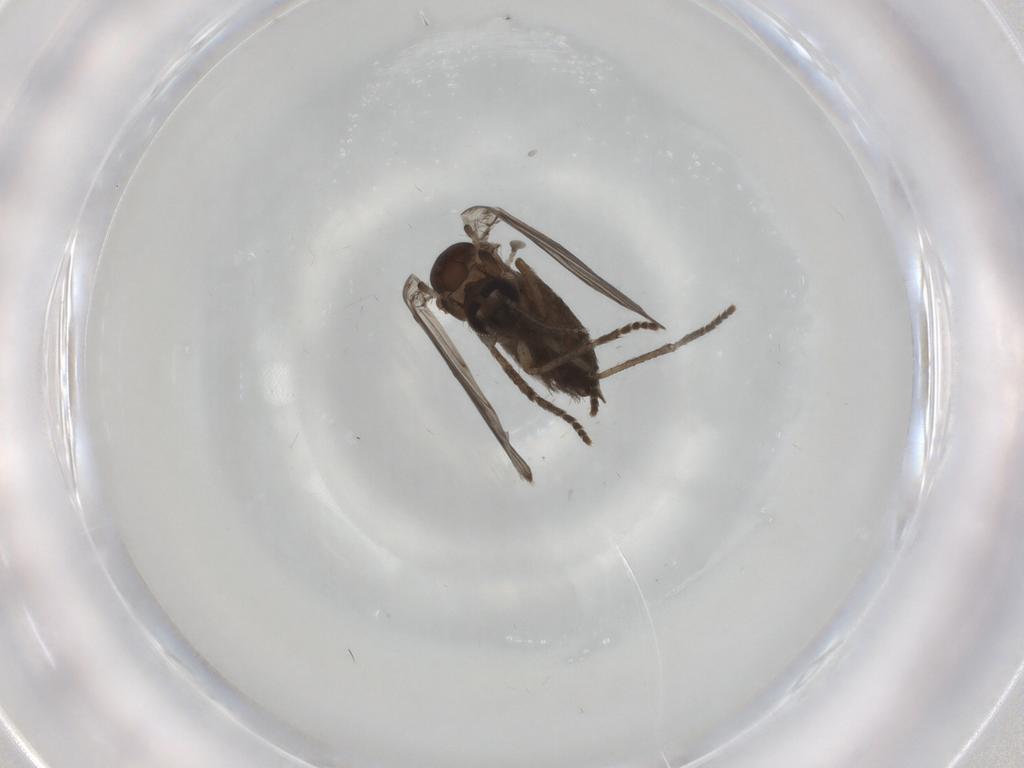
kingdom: Animalia
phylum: Arthropoda
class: Insecta
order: Diptera
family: Psychodidae
